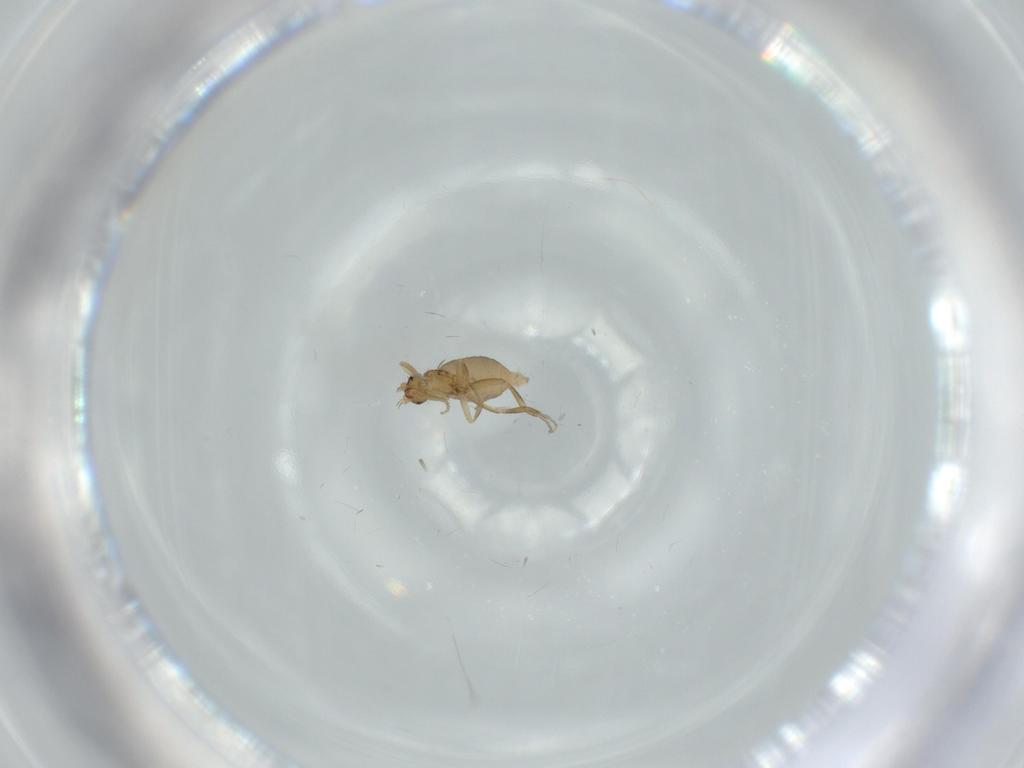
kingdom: Animalia
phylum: Arthropoda
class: Insecta
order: Diptera
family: Phoridae
